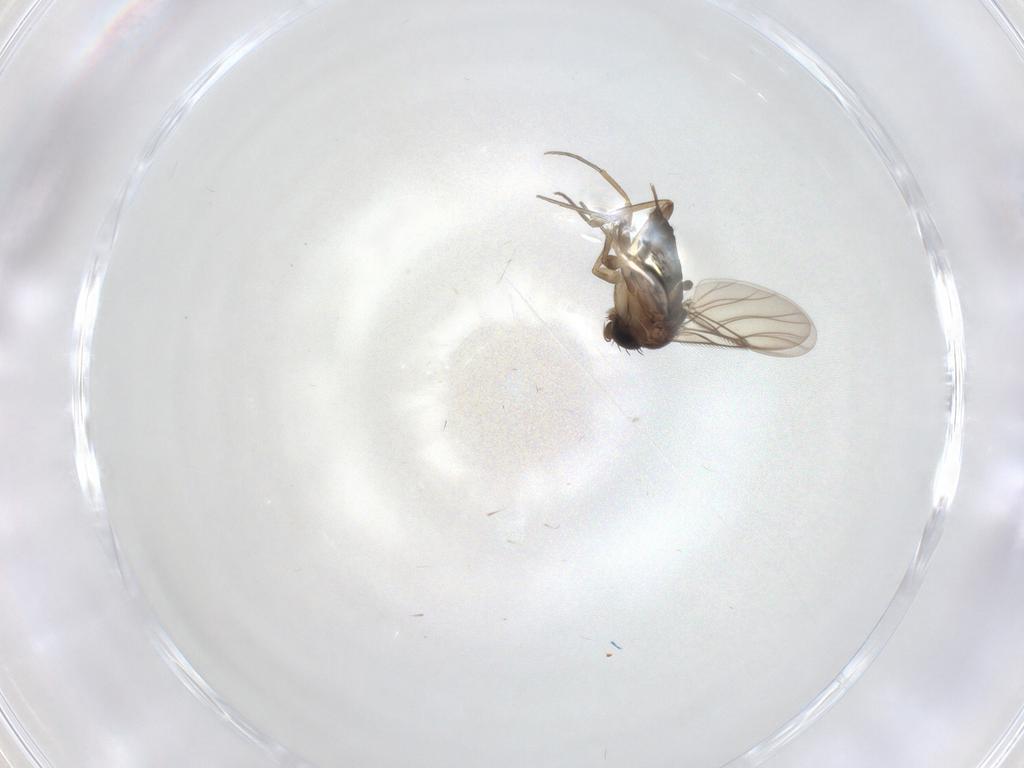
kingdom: Animalia
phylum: Arthropoda
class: Insecta
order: Diptera
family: Phoridae
